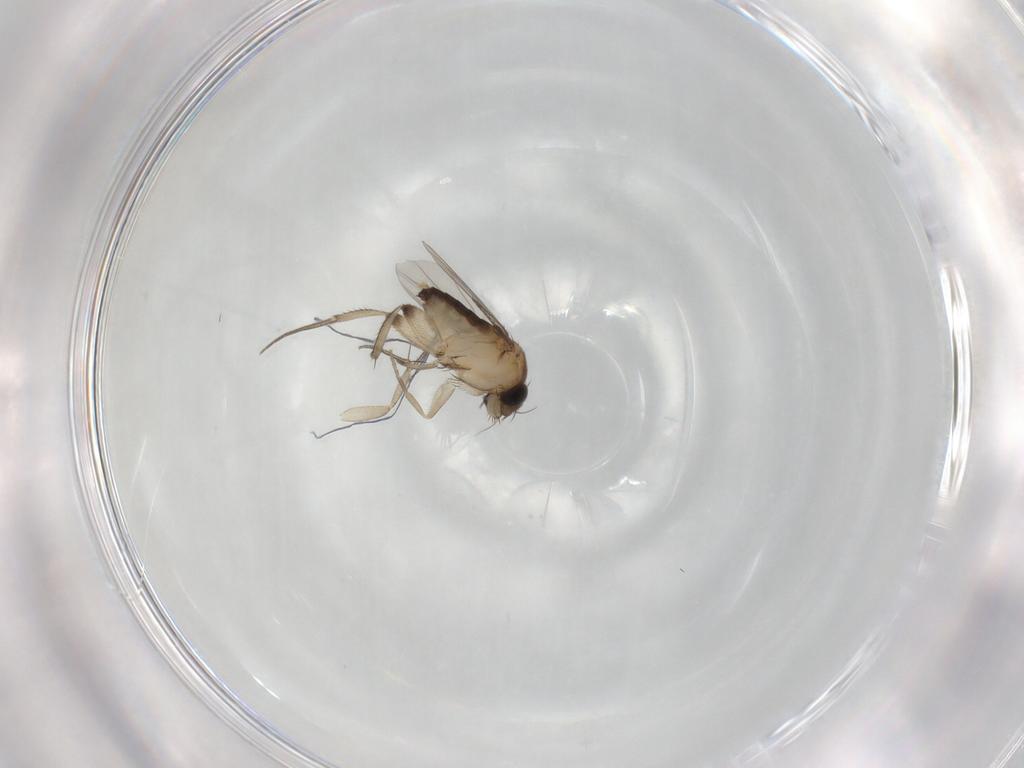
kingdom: Animalia
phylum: Arthropoda
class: Insecta
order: Diptera
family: Phoridae
